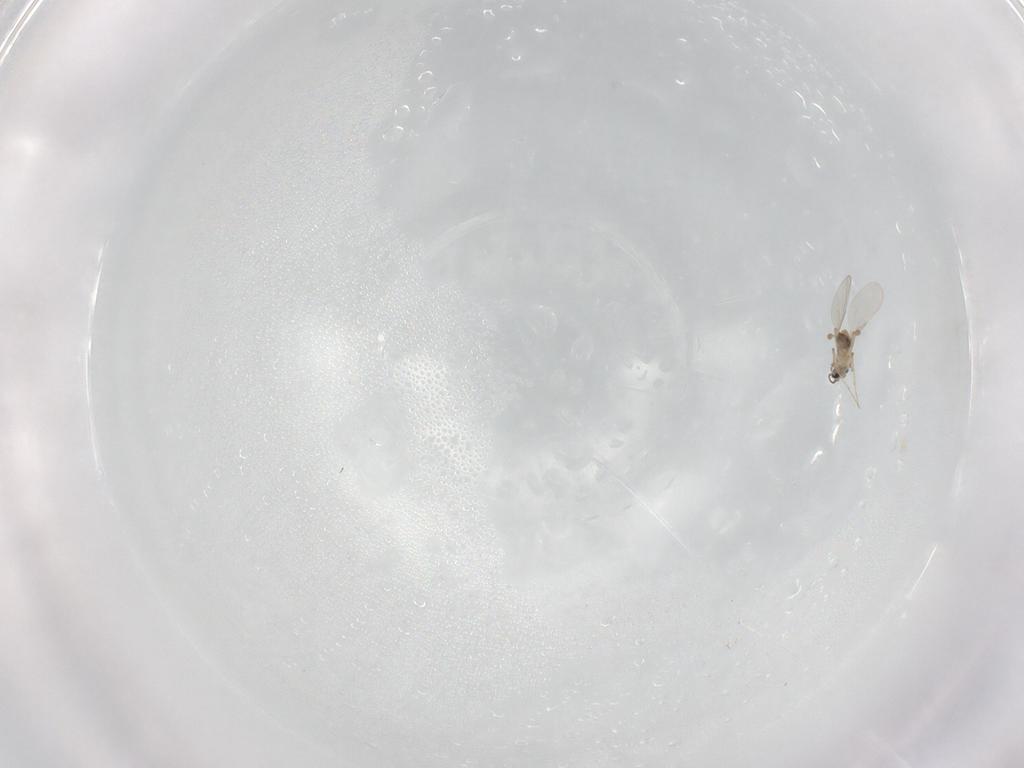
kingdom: Animalia
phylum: Arthropoda
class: Insecta
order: Diptera
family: Ceratopogonidae
